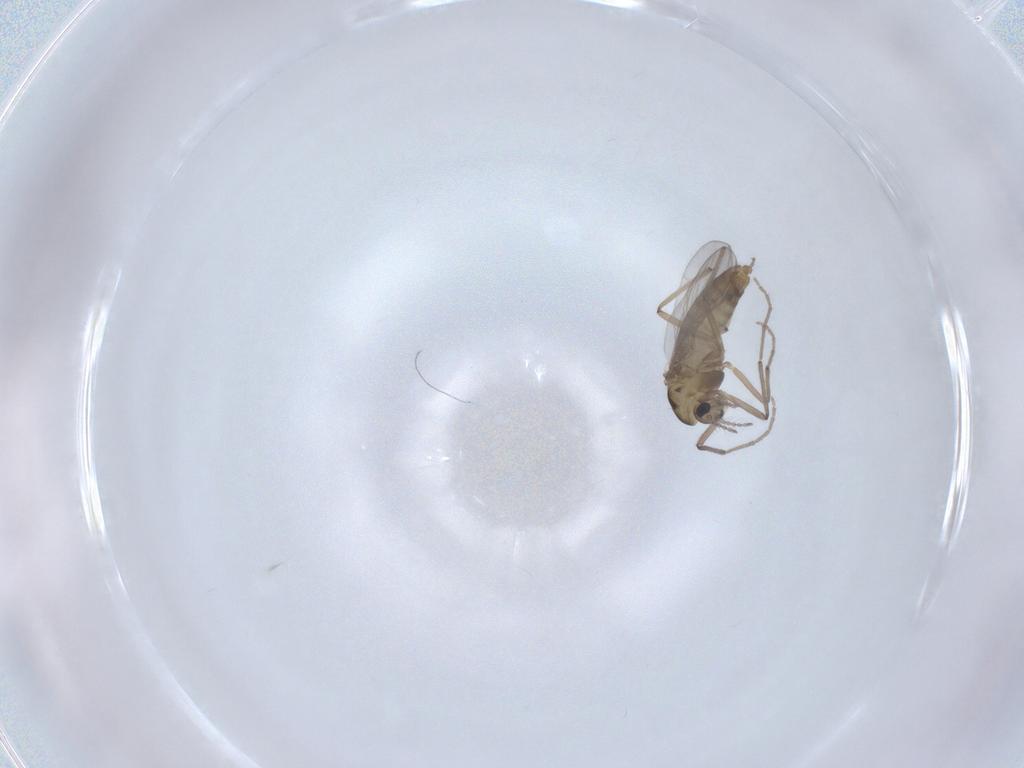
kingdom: Animalia
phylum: Arthropoda
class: Insecta
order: Diptera
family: Chironomidae
